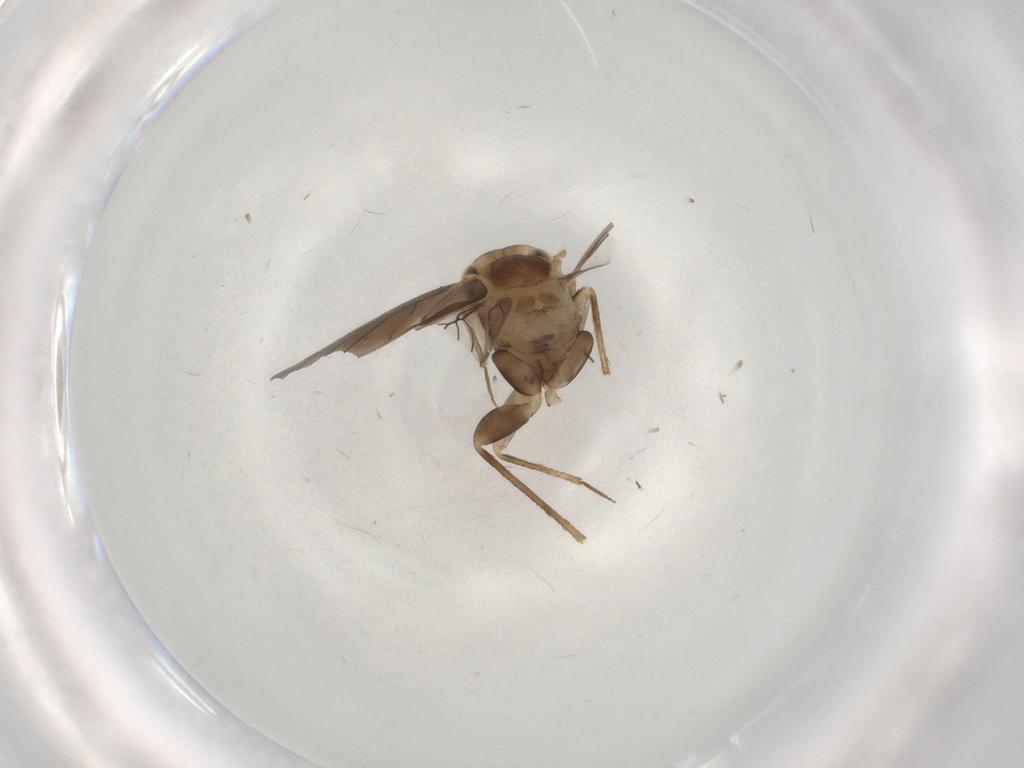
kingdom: Animalia
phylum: Arthropoda
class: Insecta
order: Psocodea
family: Lepidopsocidae
